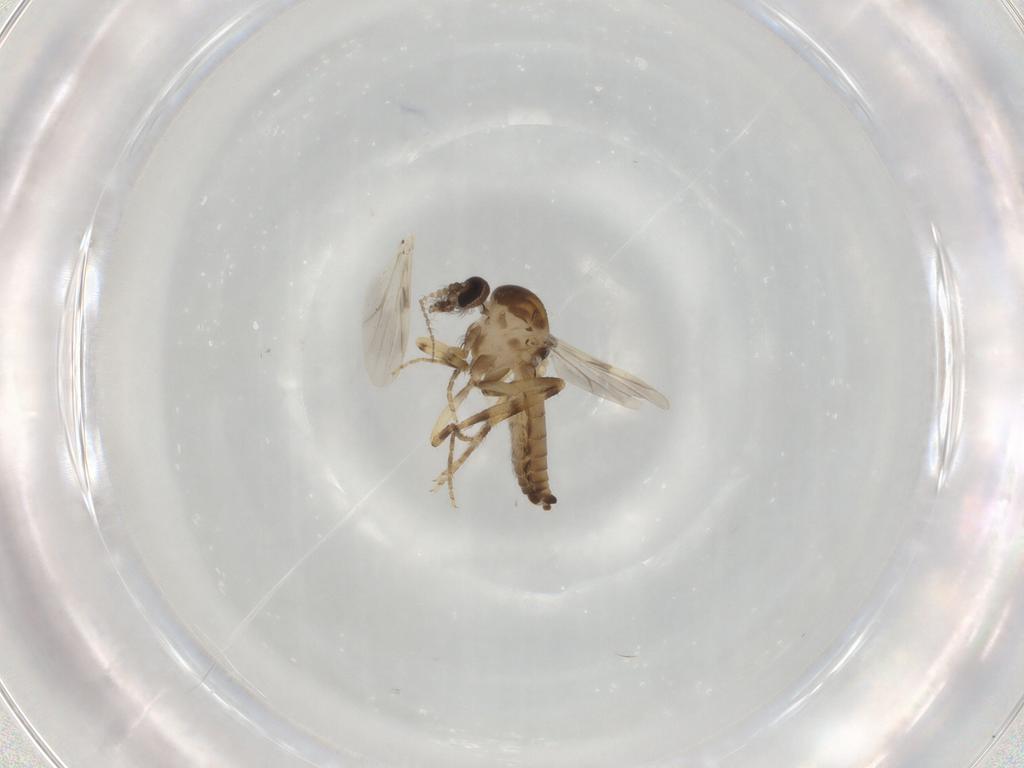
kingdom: Animalia
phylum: Arthropoda
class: Insecta
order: Diptera
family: Ceratopogonidae
